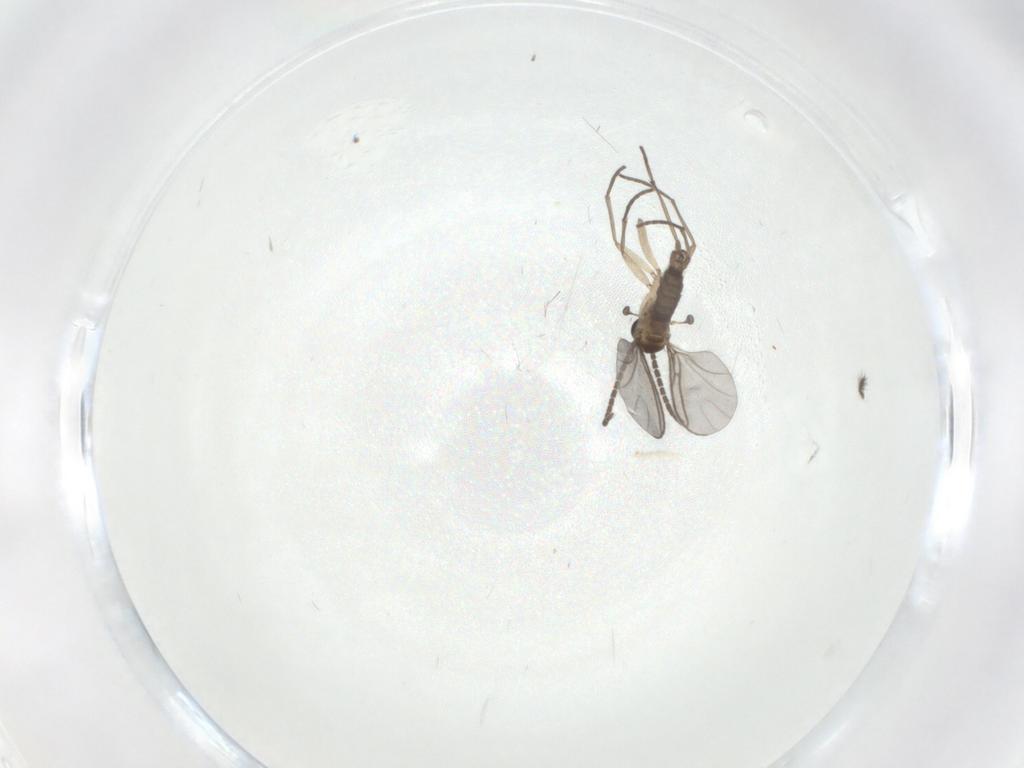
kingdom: Animalia
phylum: Arthropoda
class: Insecta
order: Diptera
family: Sciaridae
